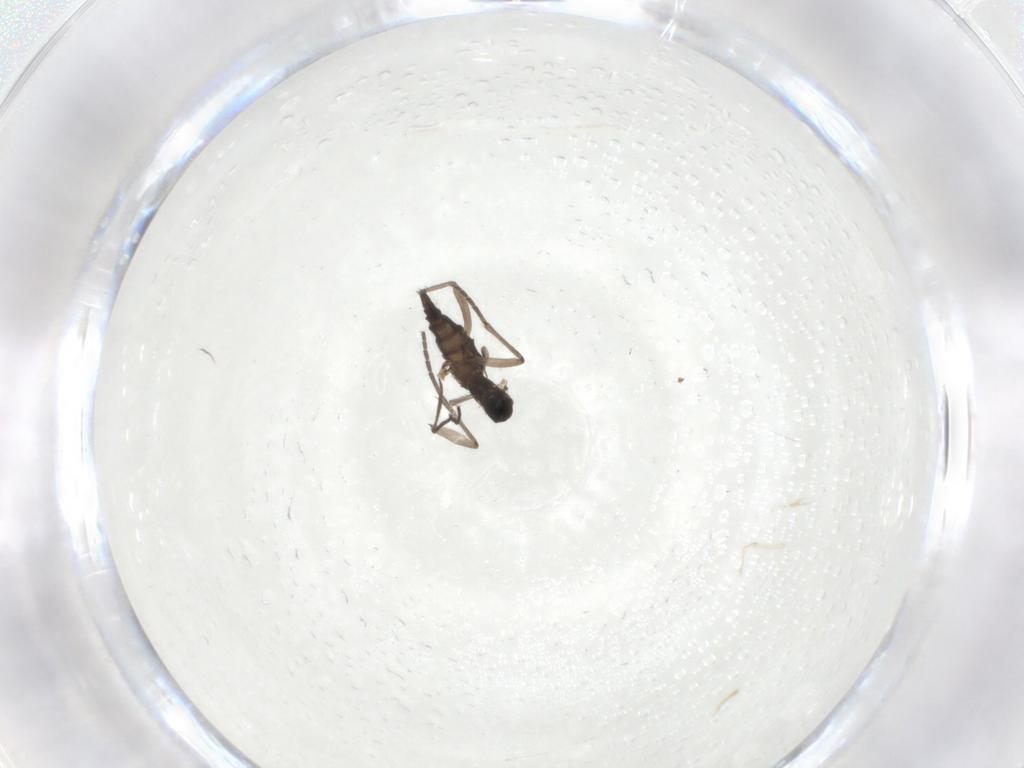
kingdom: Animalia
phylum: Arthropoda
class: Insecta
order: Diptera
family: Sciaridae
